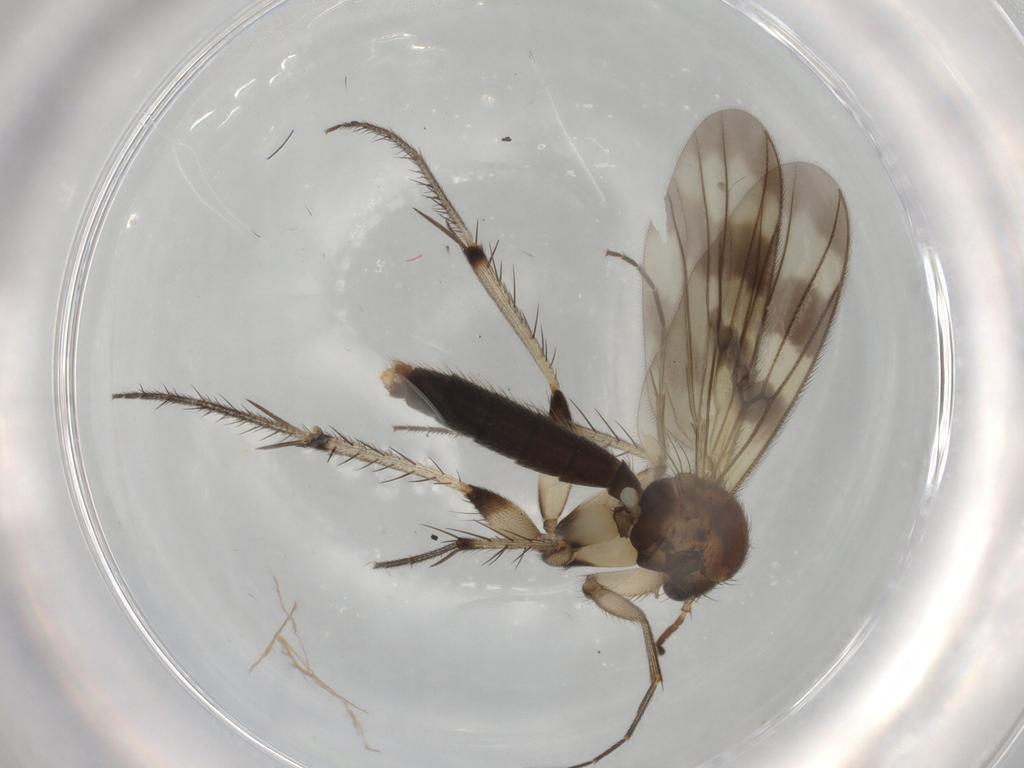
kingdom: Animalia
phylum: Arthropoda
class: Insecta
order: Diptera
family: Mycetophilidae
